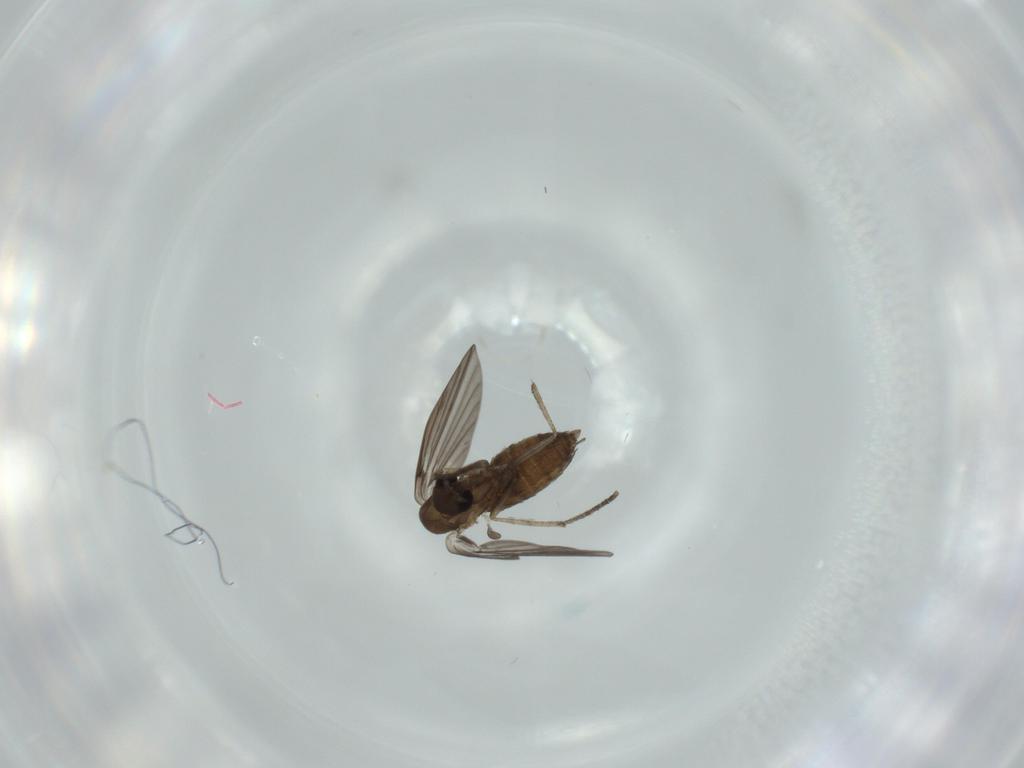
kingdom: Animalia
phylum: Arthropoda
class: Insecta
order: Diptera
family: Psychodidae
